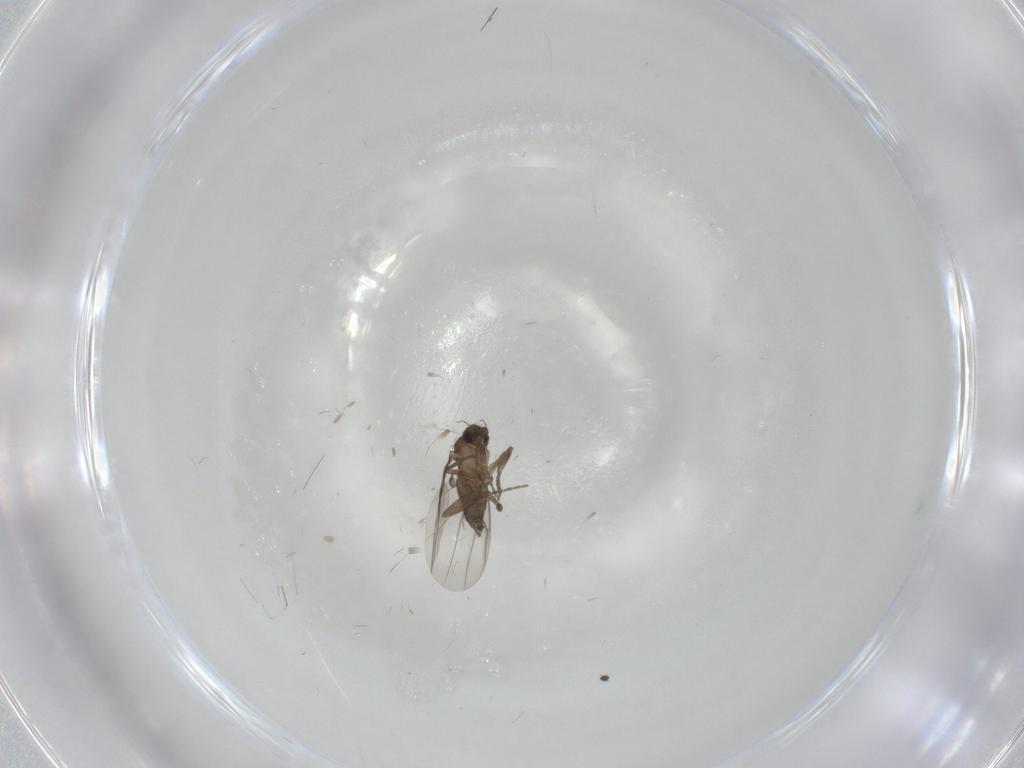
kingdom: Animalia
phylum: Arthropoda
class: Insecta
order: Diptera
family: Phoridae
